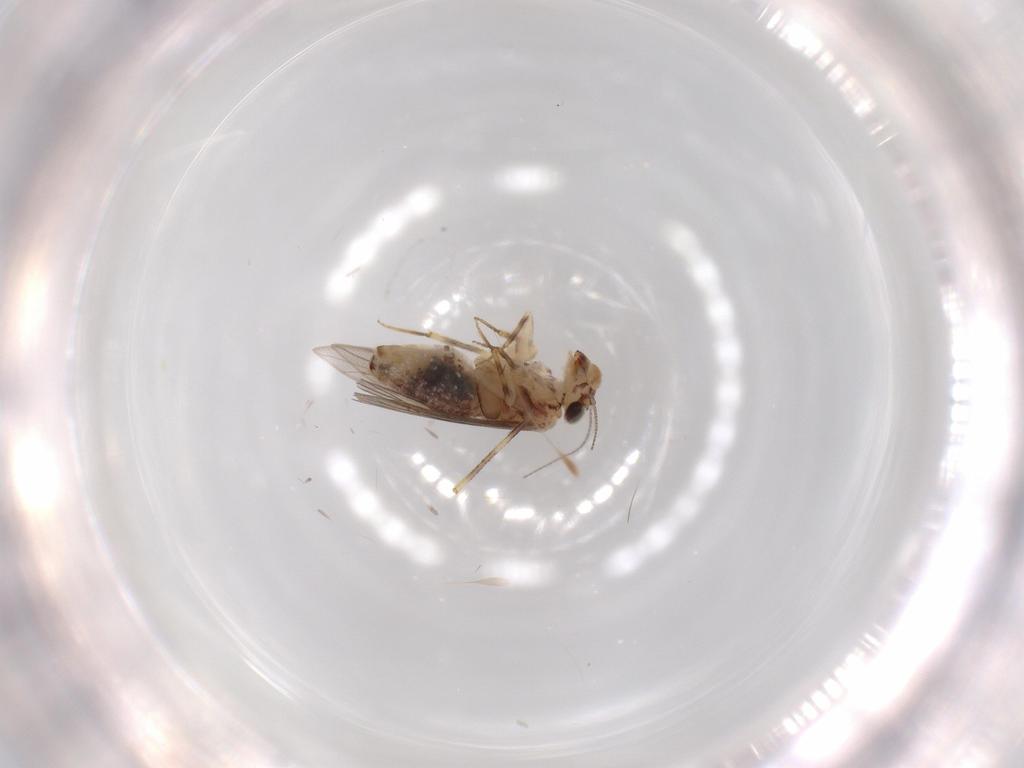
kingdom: Animalia
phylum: Arthropoda
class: Insecta
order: Psocodea
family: Lepidopsocidae
